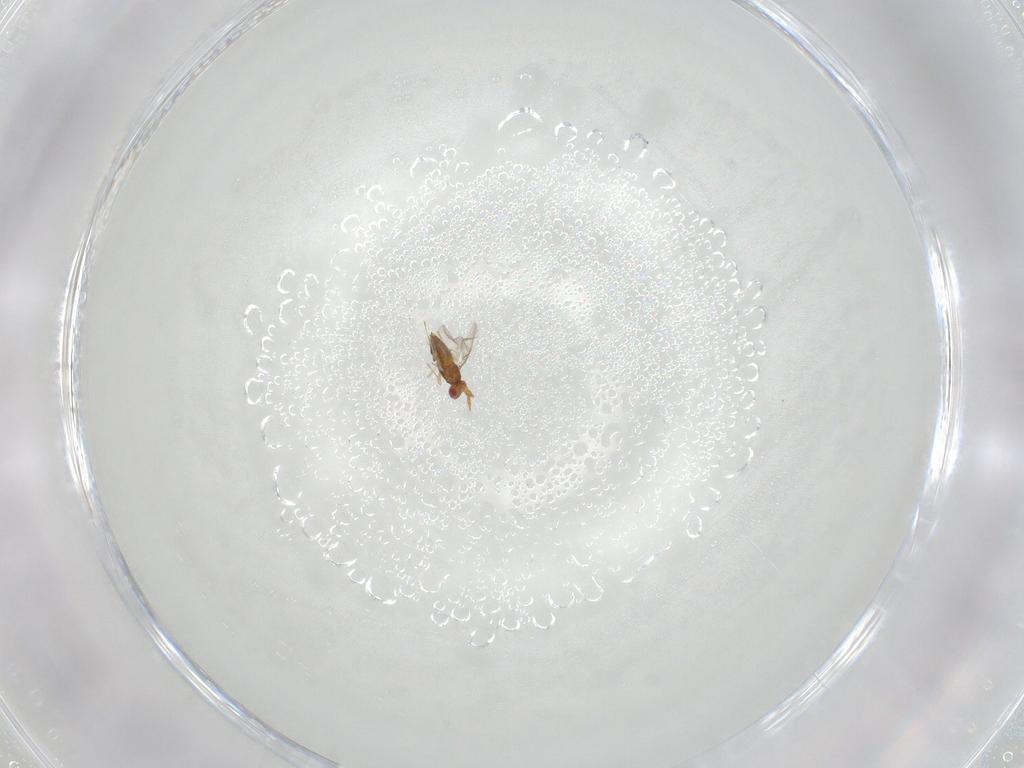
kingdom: Animalia
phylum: Arthropoda
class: Insecta
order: Hymenoptera
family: Trichogrammatidae
